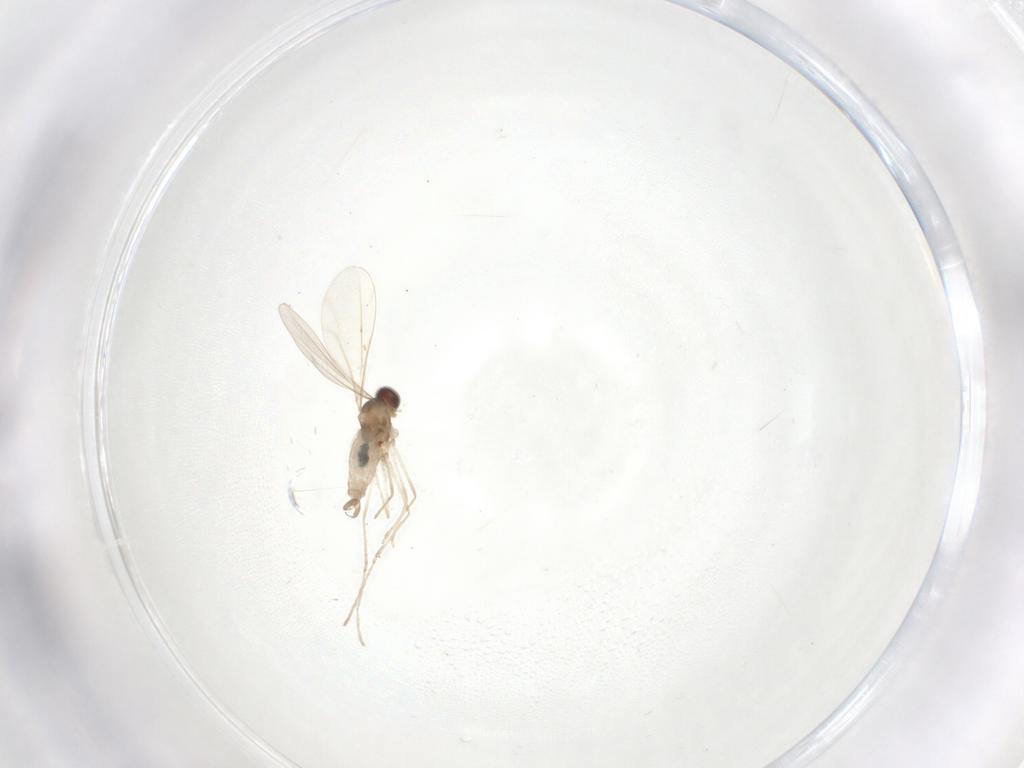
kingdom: Animalia
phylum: Arthropoda
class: Insecta
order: Diptera
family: Cecidomyiidae
